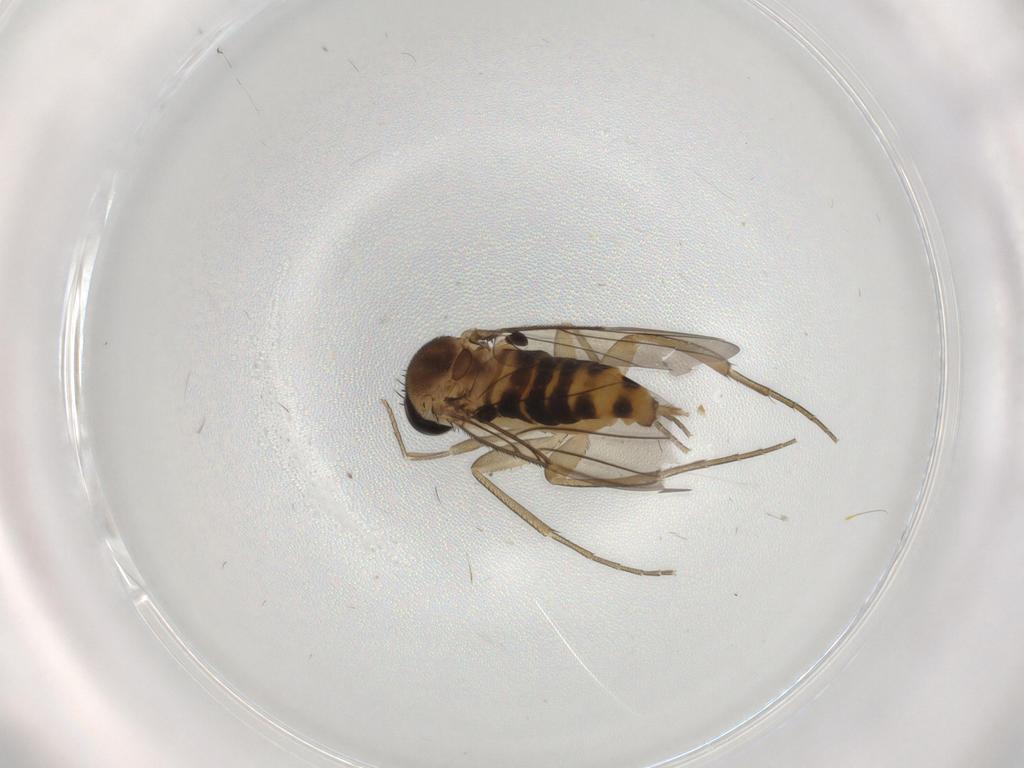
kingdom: Animalia
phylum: Arthropoda
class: Insecta
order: Diptera
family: Phoridae
